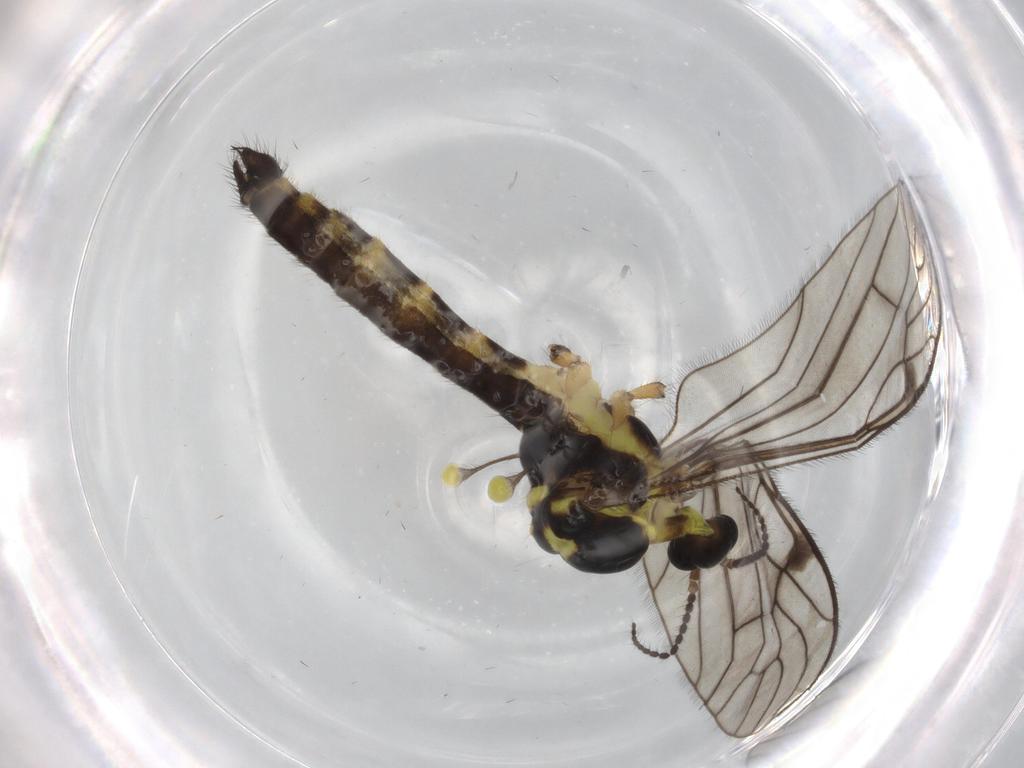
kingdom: Animalia
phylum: Arthropoda
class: Insecta
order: Diptera
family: Limoniidae
